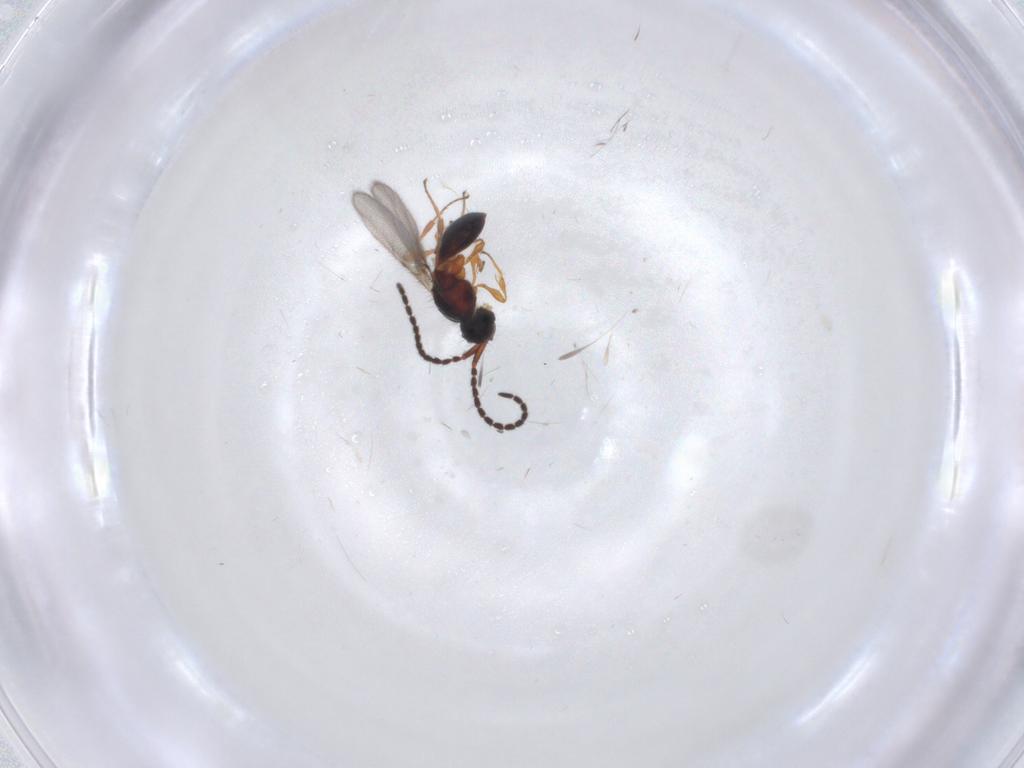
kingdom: Animalia
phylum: Arthropoda
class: Insecta
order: Hymenoptera
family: Diapriidae
